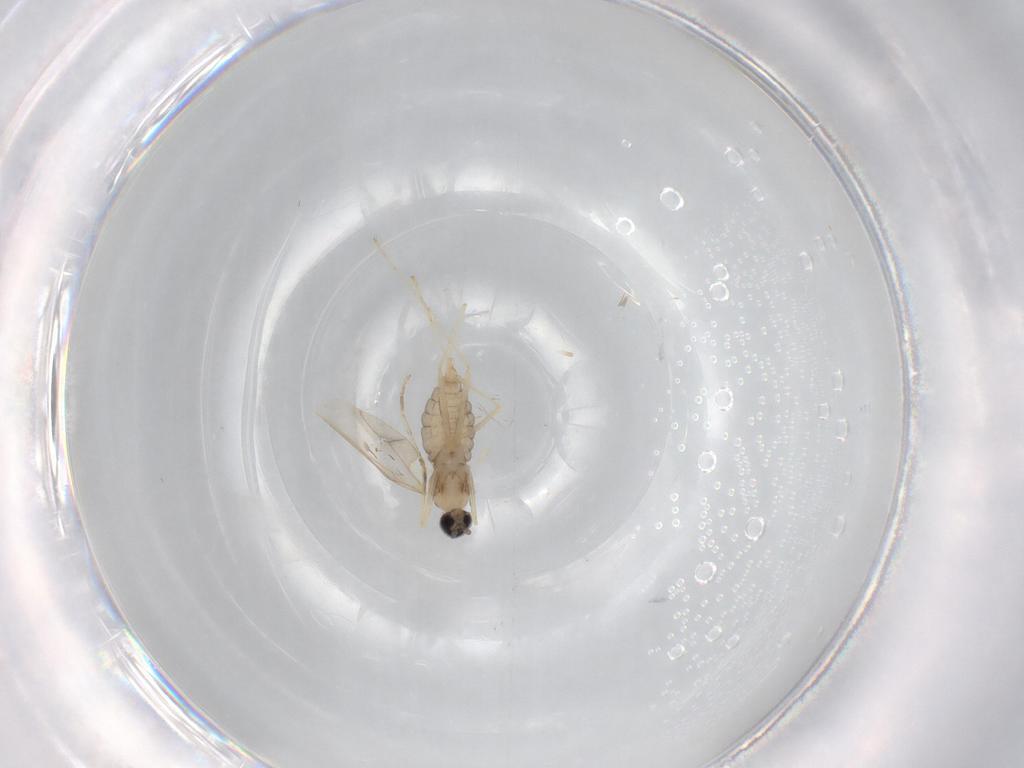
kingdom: Animalia
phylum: Arthropoda
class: Insecta
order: Diptera
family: Cecidomyiidae
